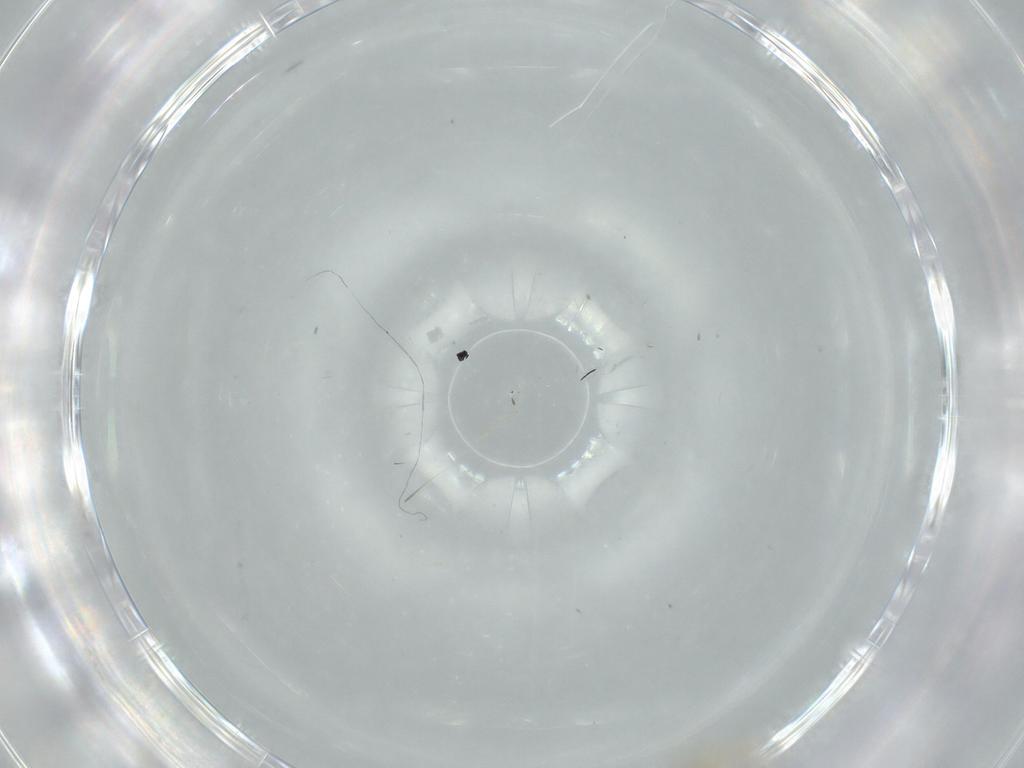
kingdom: Animalia
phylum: Arthropoda
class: Insecta
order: Diptera
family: Cecidomyiidae
